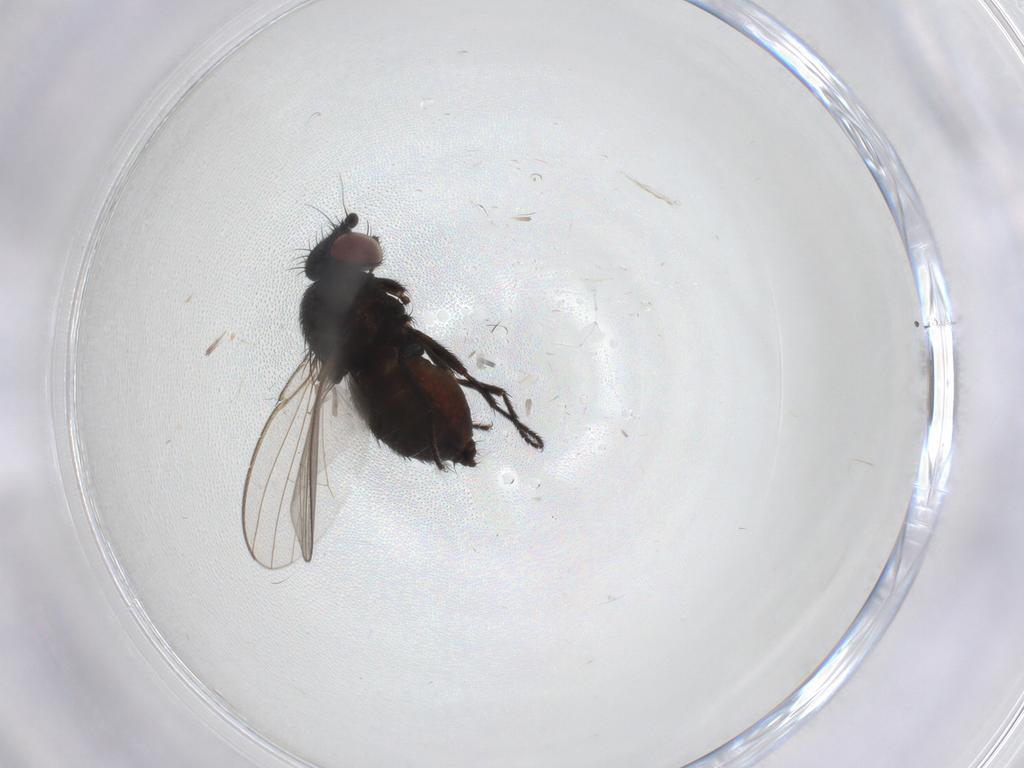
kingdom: Animalia
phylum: Arthropoda
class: Insecta
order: Diptera
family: Milichiidae
